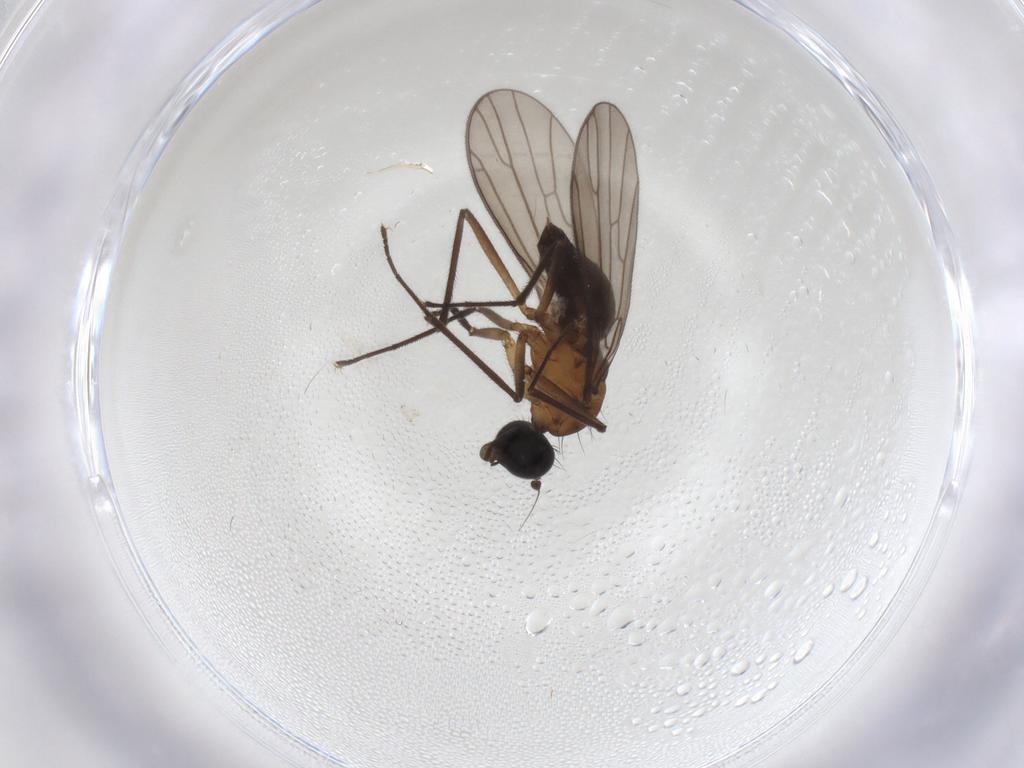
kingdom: Animalia
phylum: Arthropoda
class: Insecta
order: Diptera
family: Empididae
